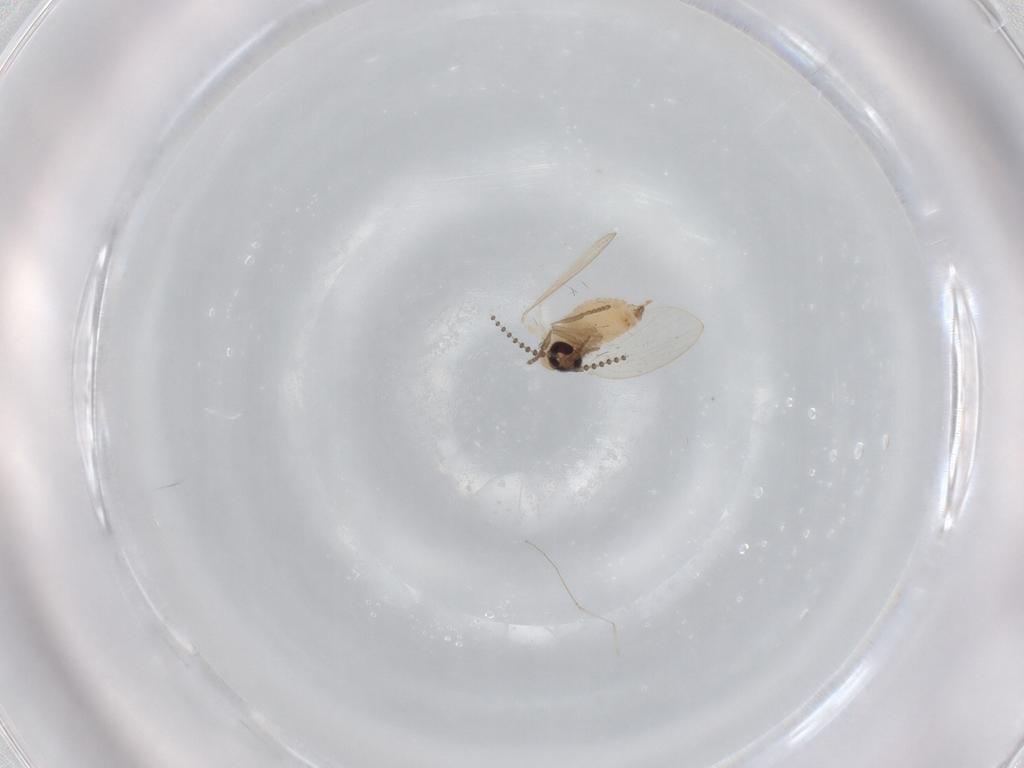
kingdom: Animalia
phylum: Arthropoda
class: Insecta
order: Diptera
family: Psychodidae
